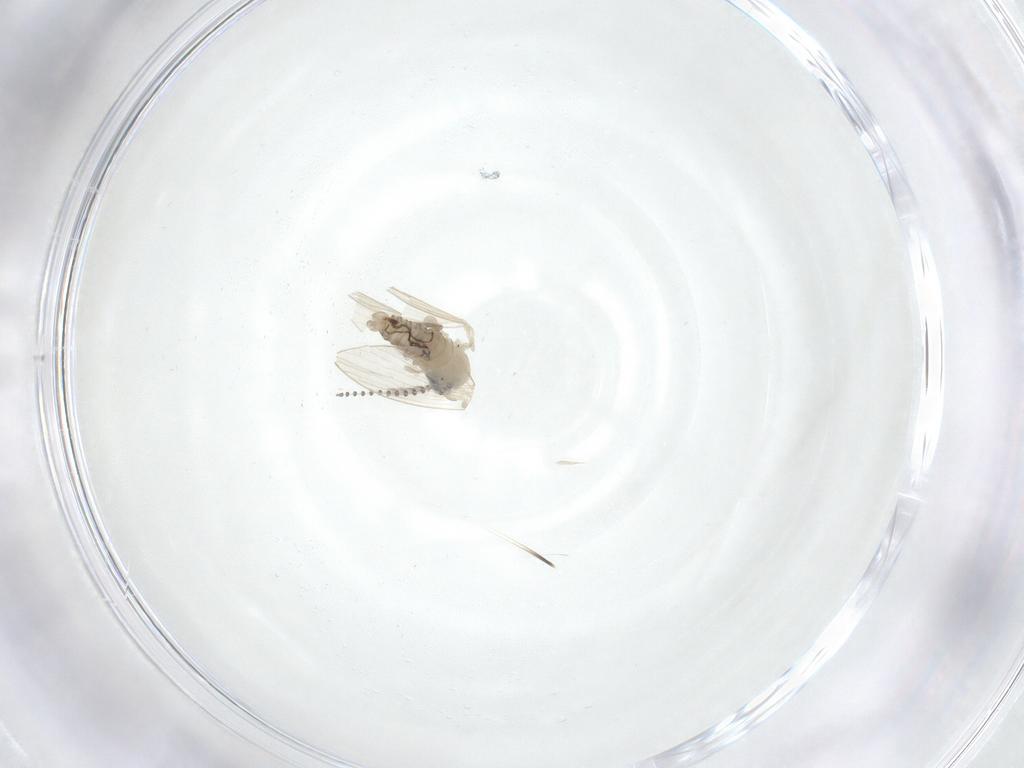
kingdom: Animalia
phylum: Arthropoda
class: Insecta
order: Diptera
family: Psychodidae
